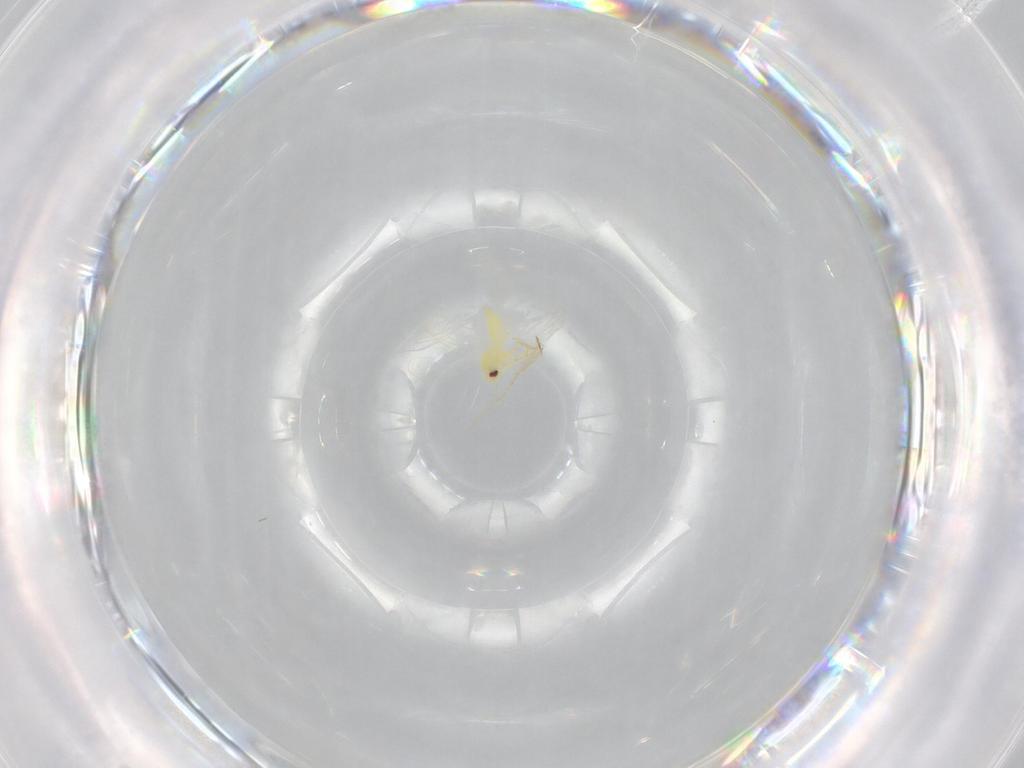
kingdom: Animalia
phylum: Arthropoda
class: Insecta
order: Hemiptera
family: Aleyrodidae
